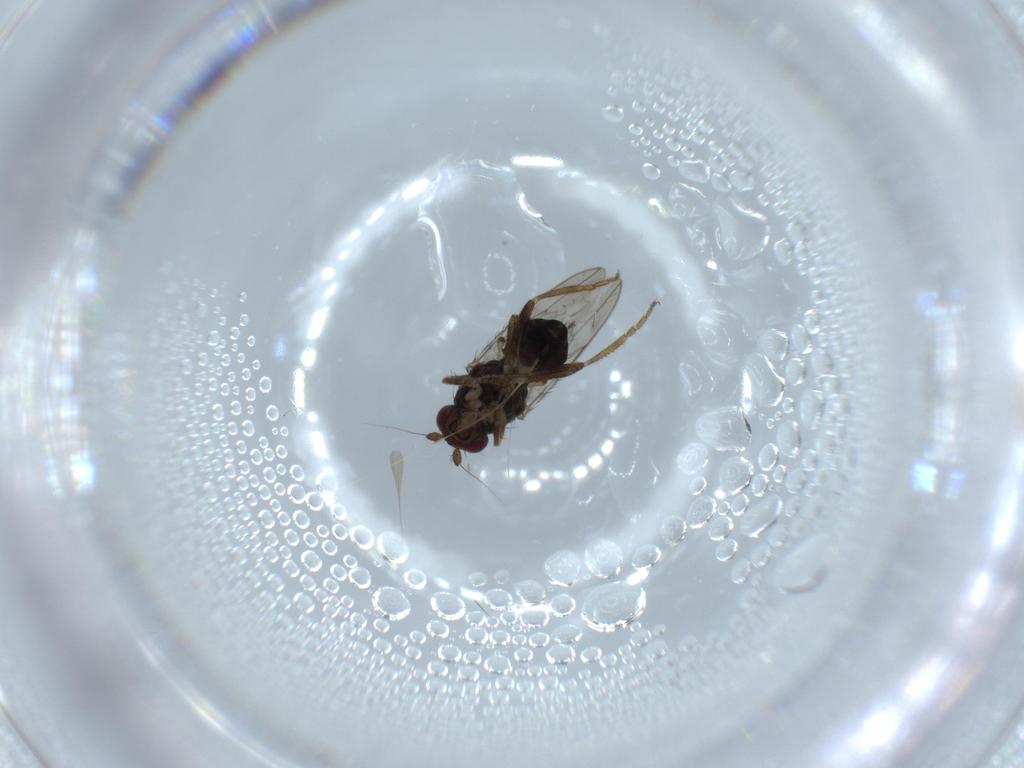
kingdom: Animalia
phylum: Arthropoda
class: Insecta
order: Diptera
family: Sphaeroceridae
